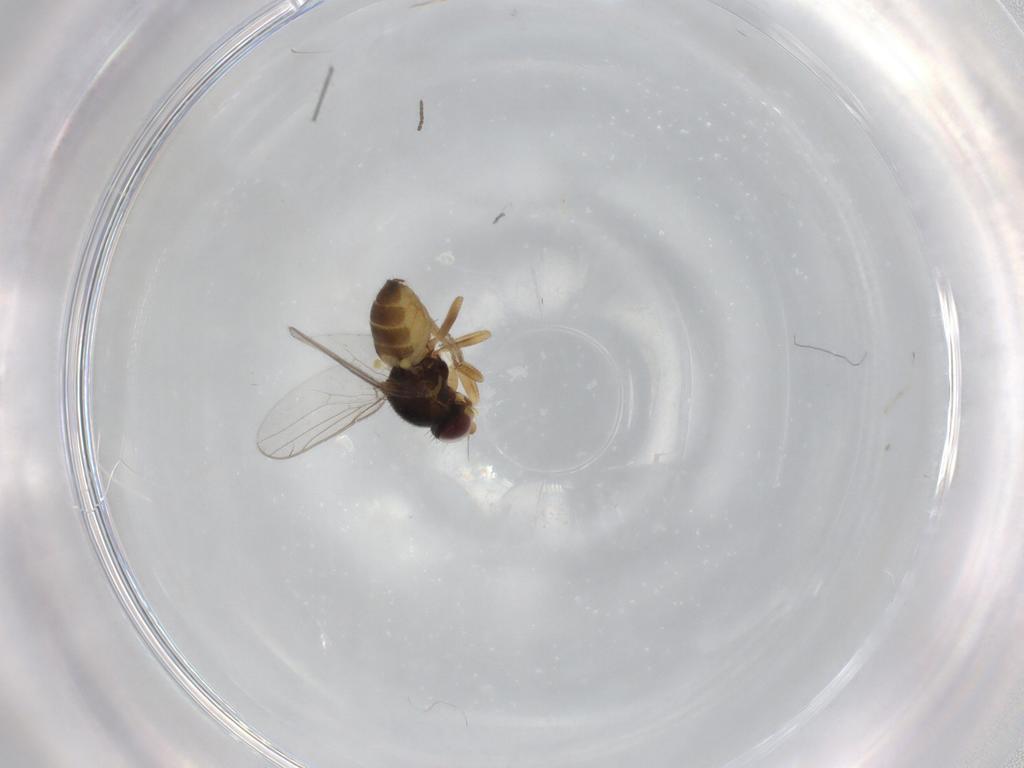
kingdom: Animalia
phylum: Arthropoda
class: Insecta
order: Diptera
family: Chloropidae
